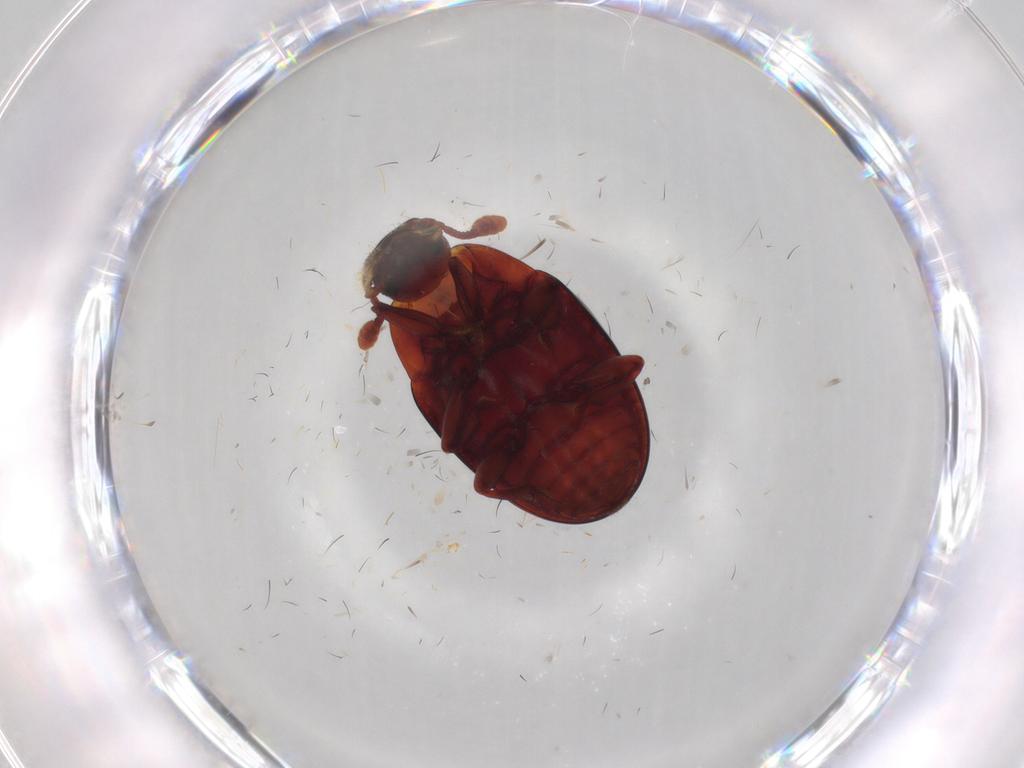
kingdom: Animalia
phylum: Arthropoda
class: Insecta
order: Coleoptera
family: Zopheridae
